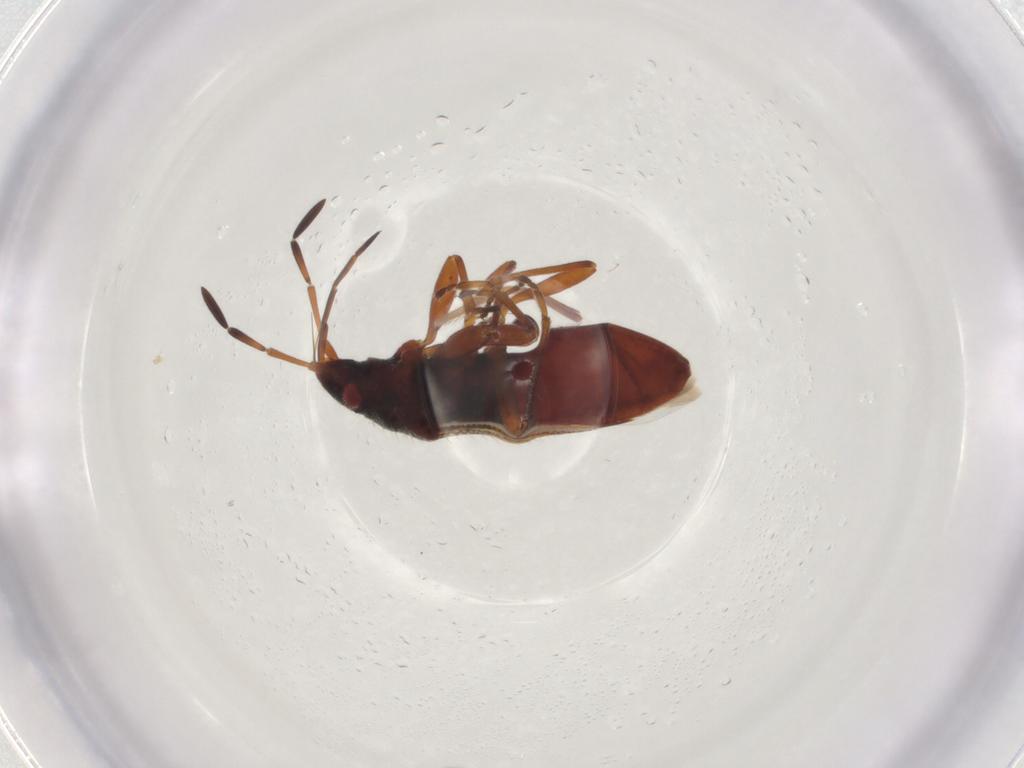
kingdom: Animalia
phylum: Arthropoda
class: Insecta
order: Hemiptera
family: Rhyparochromidae
